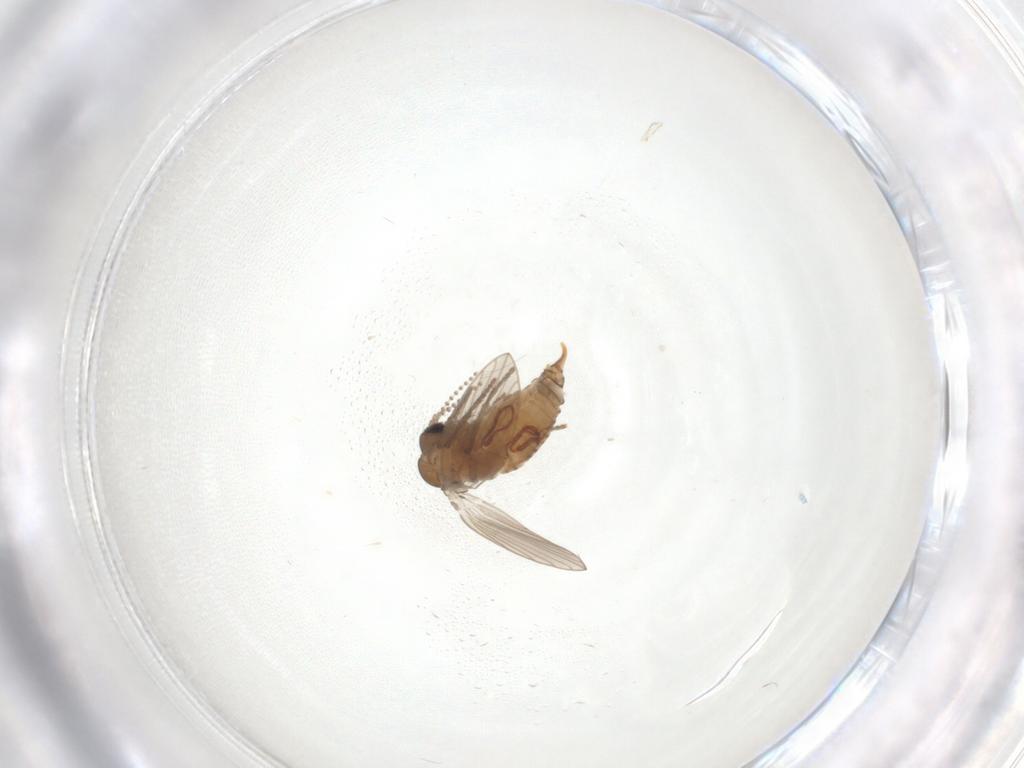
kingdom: Animalia
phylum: Arthropoda
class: Insecta
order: Diptera
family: Psychodidae
